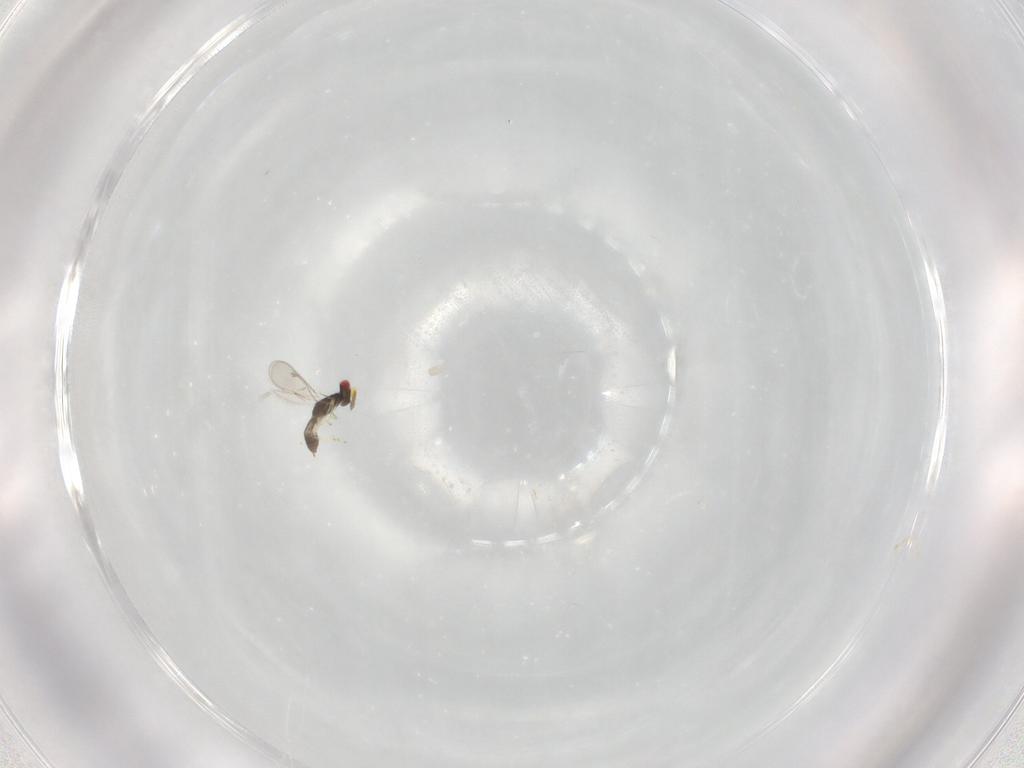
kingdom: Animalia
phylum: Arthropoda
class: Insecta
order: Hymenoptera
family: Eulophidae
